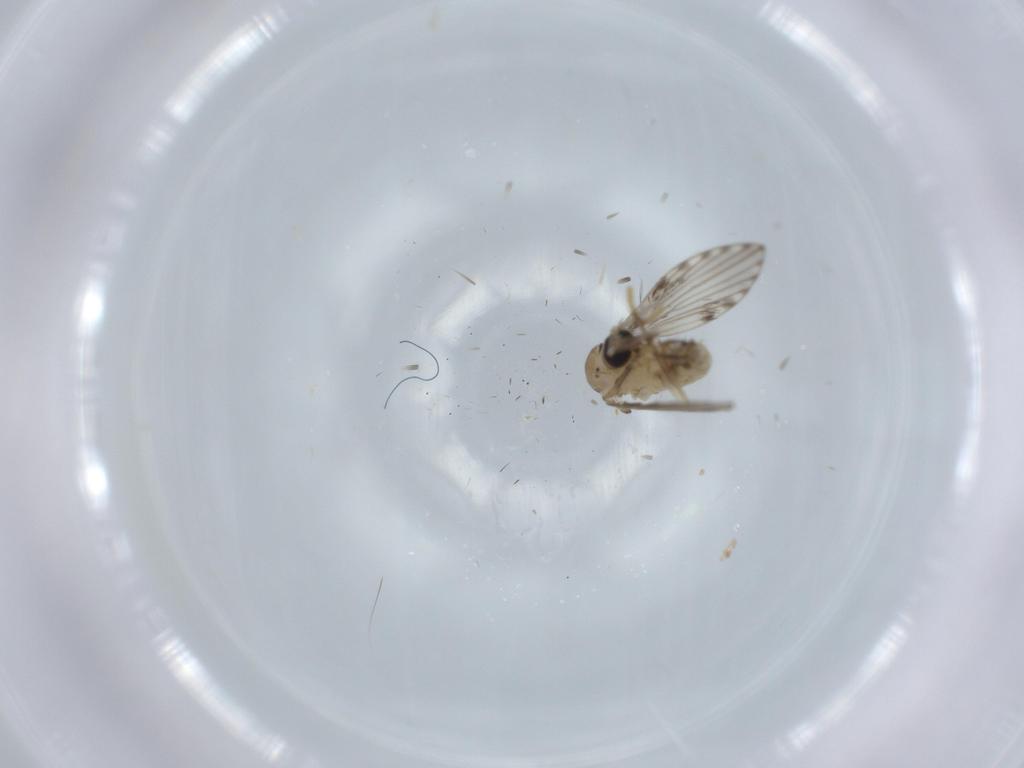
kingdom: Animalia
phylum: Arthropoda
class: Insecta
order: Diptera
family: Psychodidae
